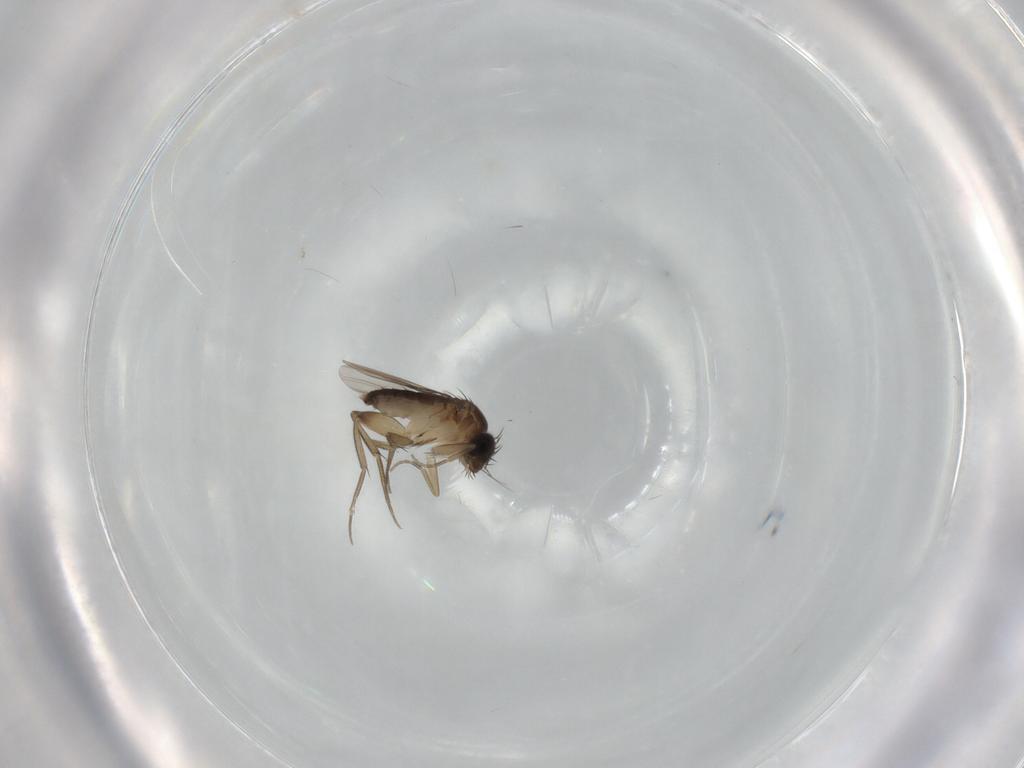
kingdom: Animalia
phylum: Arthropoda
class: Insecta
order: Diptera
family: Phoridae
